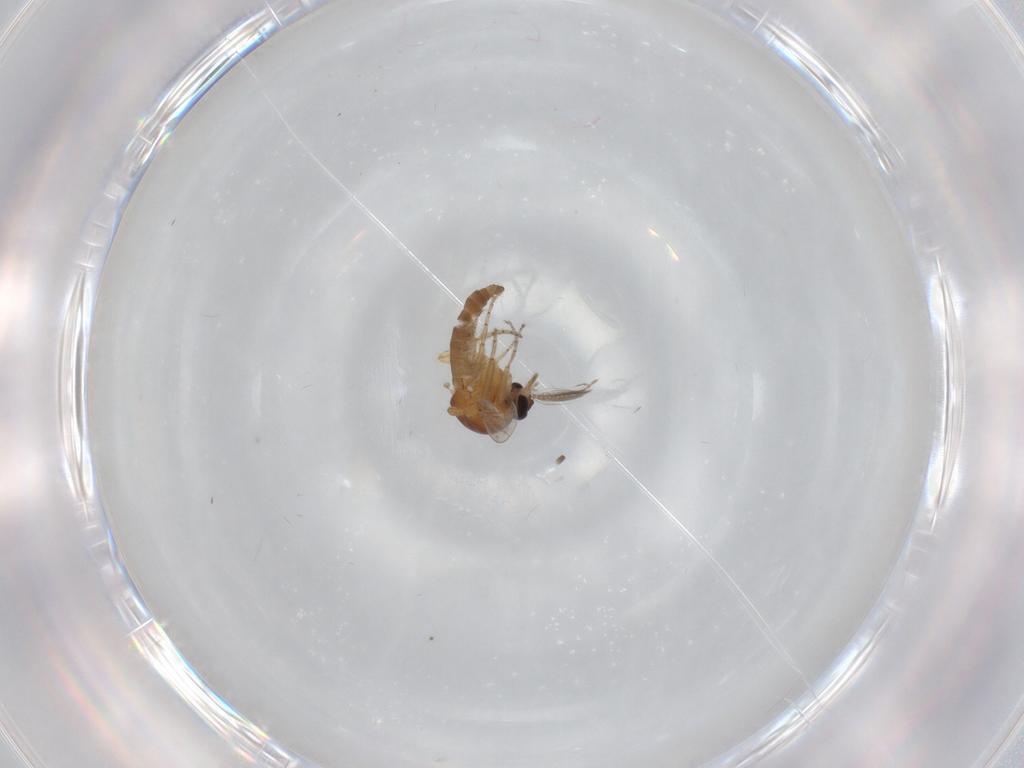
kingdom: Animalia
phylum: Arthropoda
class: Insecta
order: Diptera
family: Ceratopogonidae
